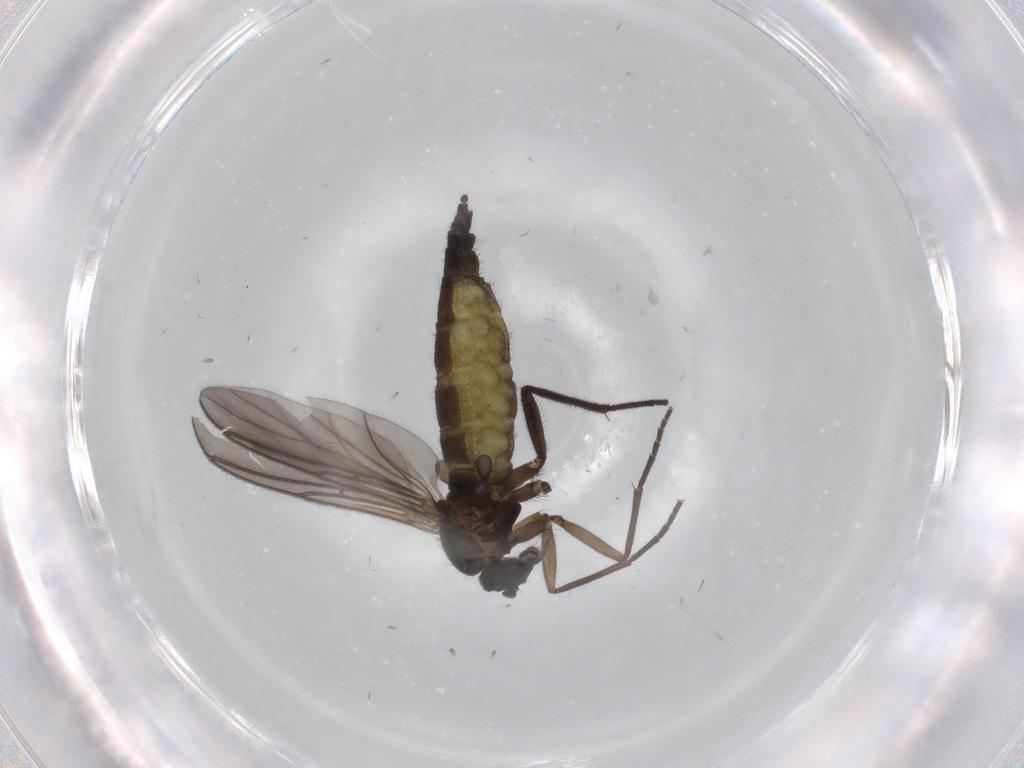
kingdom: Animalia
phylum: Arthropoda
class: Insecta
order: Diptera
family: Sciaridae
